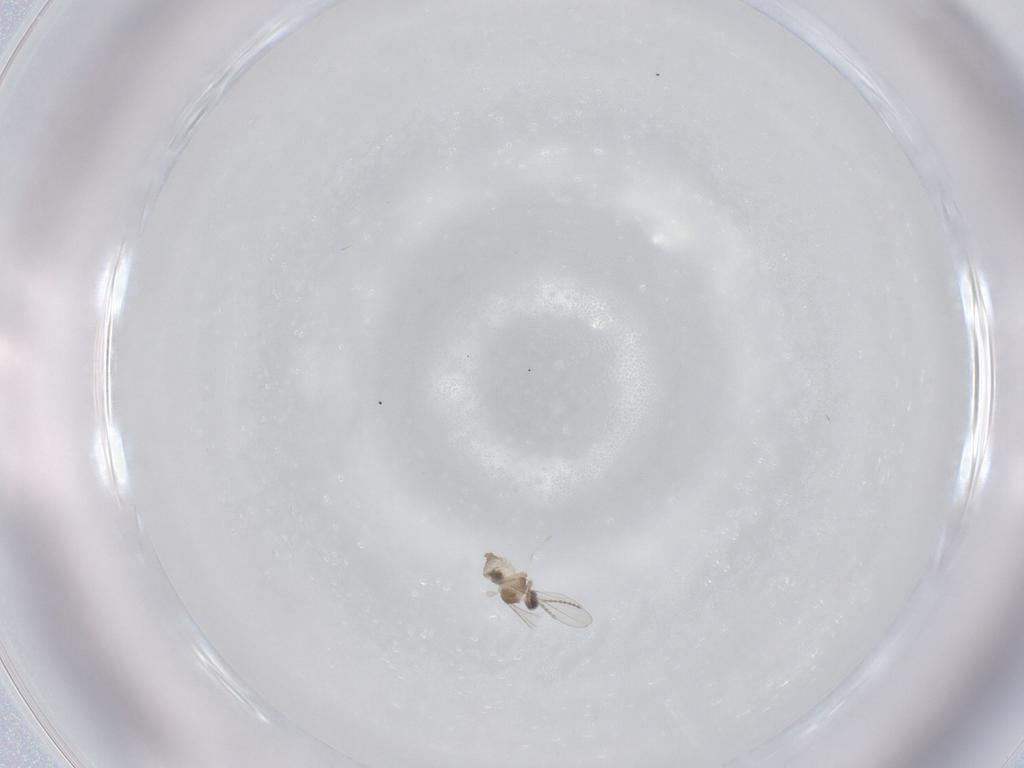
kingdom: Animalia
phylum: Arthropoda
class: Insecta
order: Diptera
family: Cecidomyiidae
